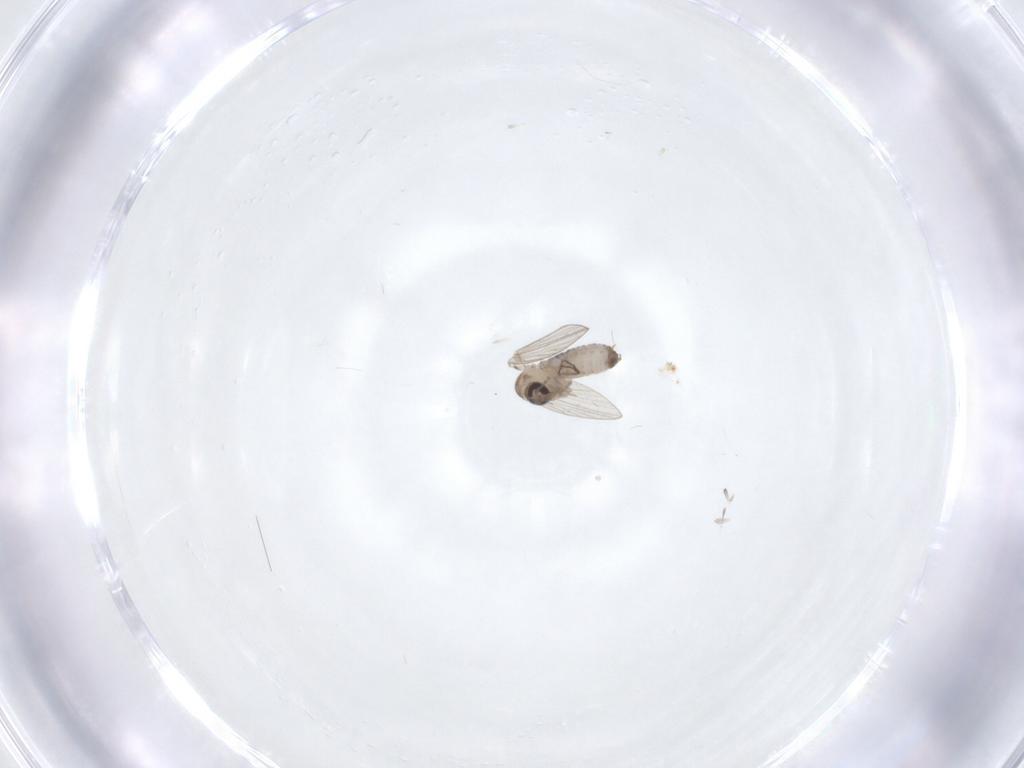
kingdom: Animalia
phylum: Arthropoda
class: Insecta
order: Diptera
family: Psychodidae
